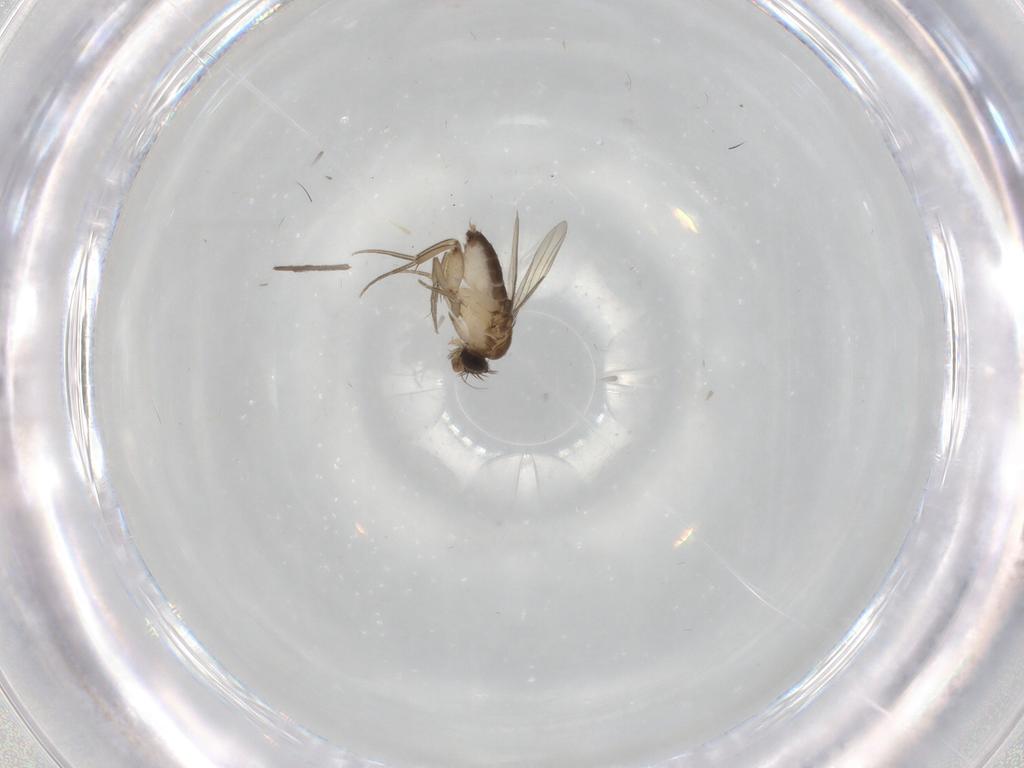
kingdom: Animalia
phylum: Arthropoda
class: Insecta
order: Diptera
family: Phoridae
